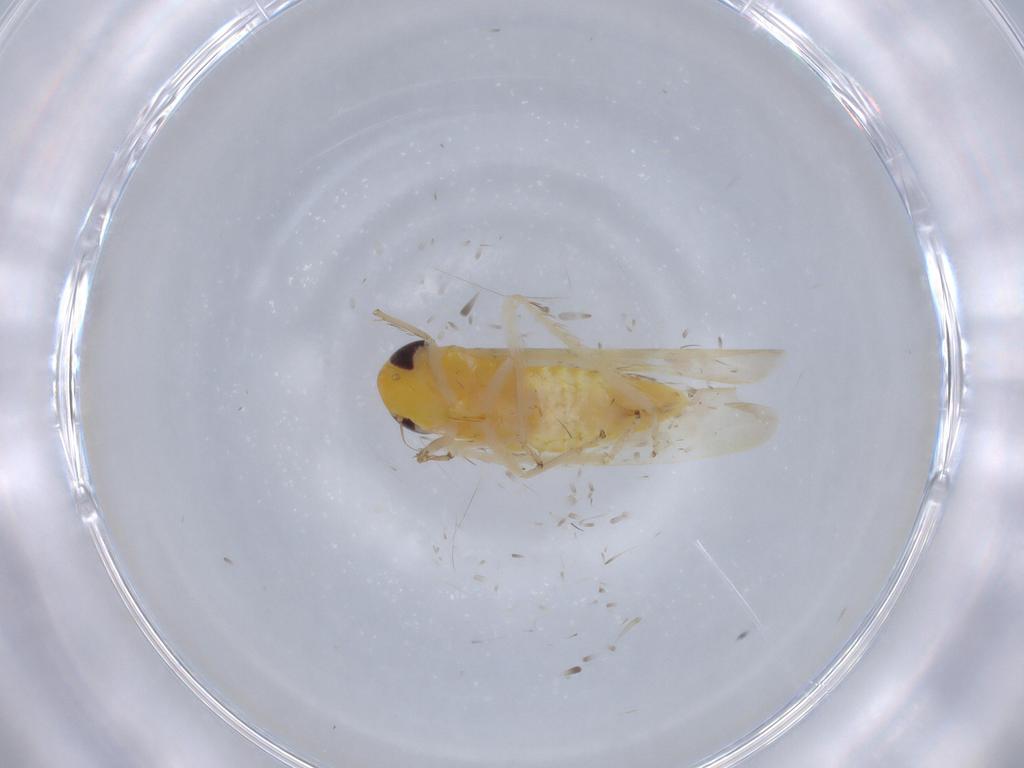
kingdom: Animalia
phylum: Arthropoda
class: Insecta
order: Hemiptera
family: Cicadellidae
